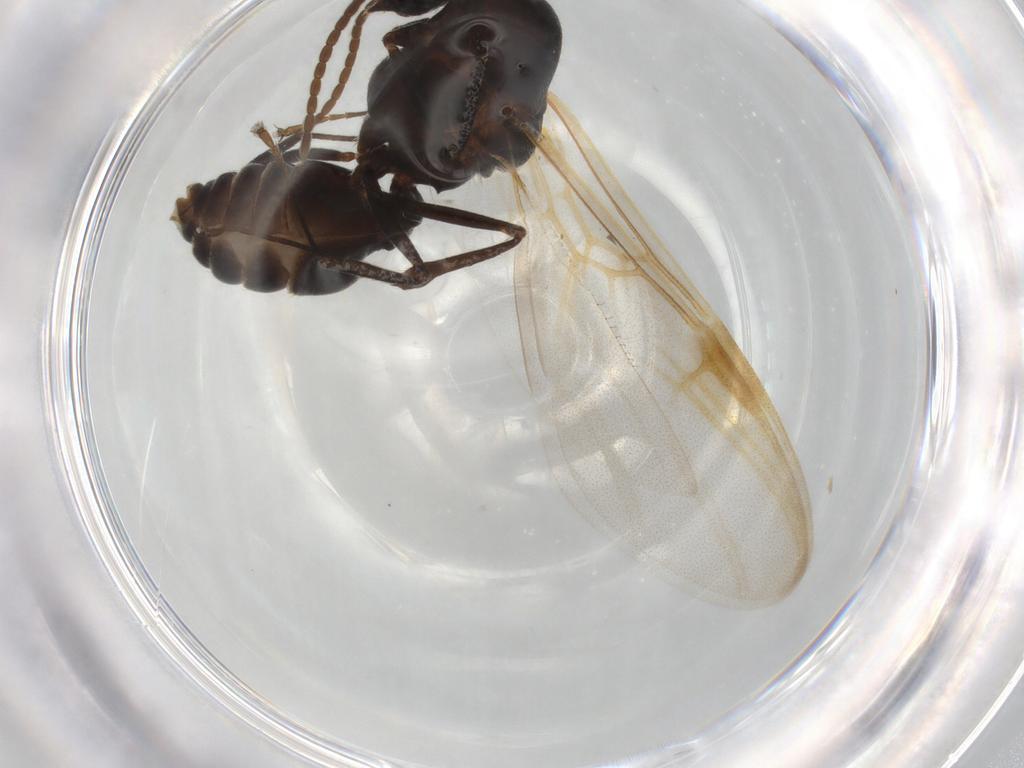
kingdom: Animalia
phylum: Arthropoda
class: Insecta
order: Hymenoptera
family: Formicidae
